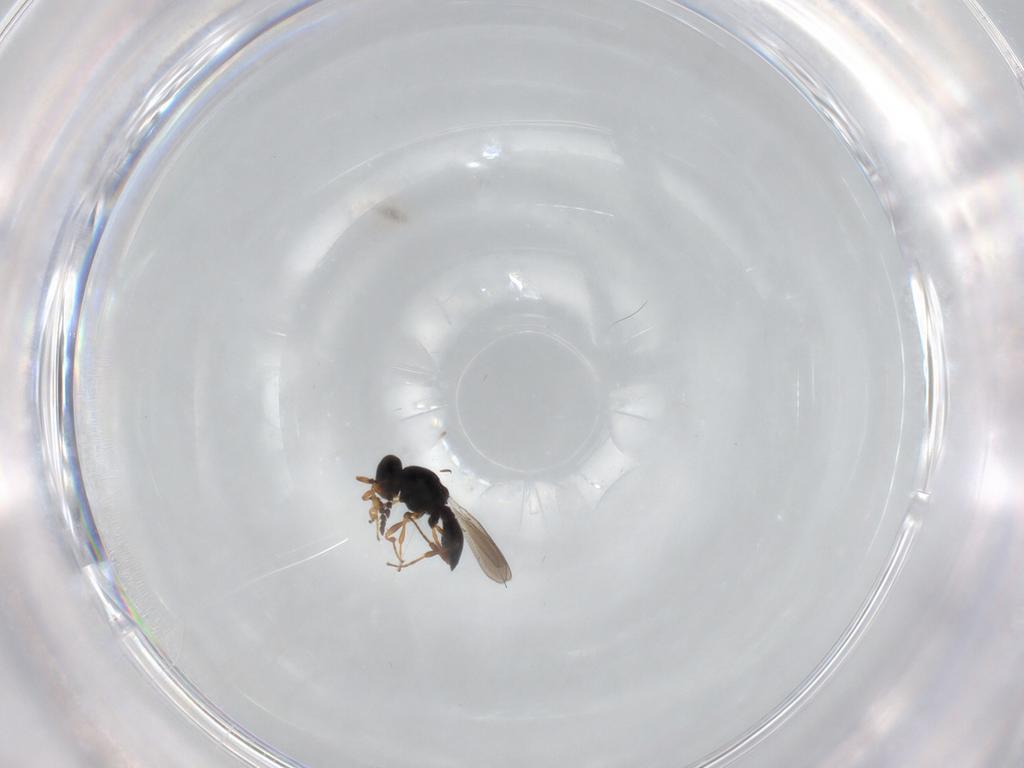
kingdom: Animalia
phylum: Arthropoda
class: Insecta
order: Hymenoptera
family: Platygastridae
